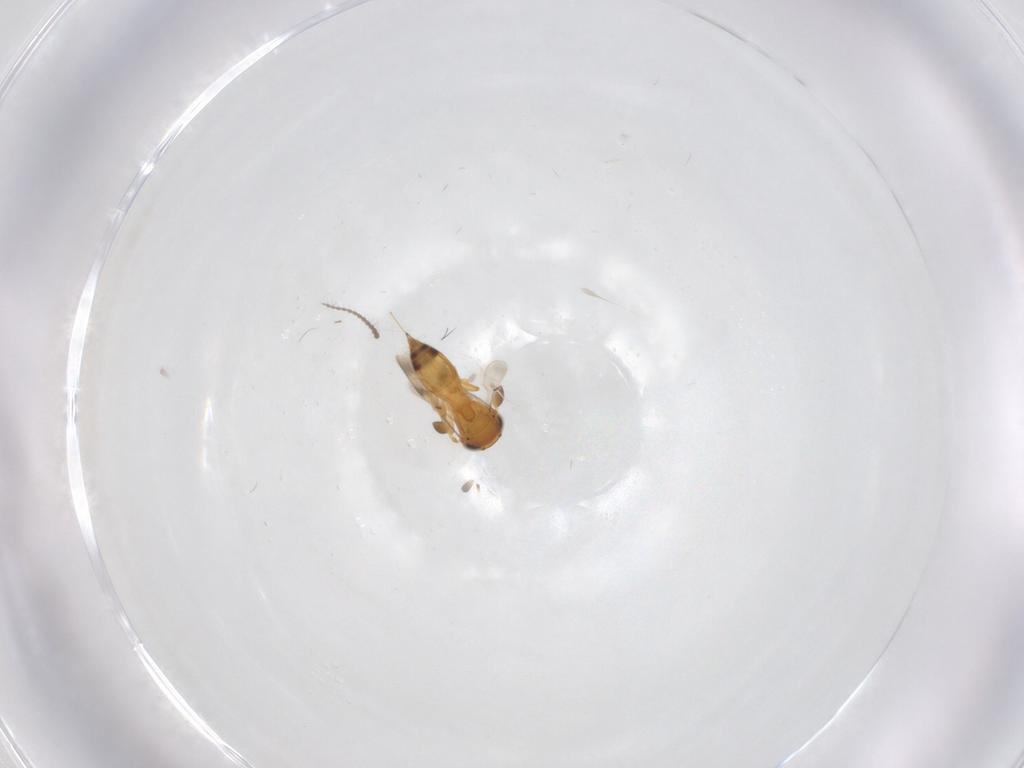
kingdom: Animalia
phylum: Arthropoda
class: Insecta
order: Hymenoptera
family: Scelionidae
